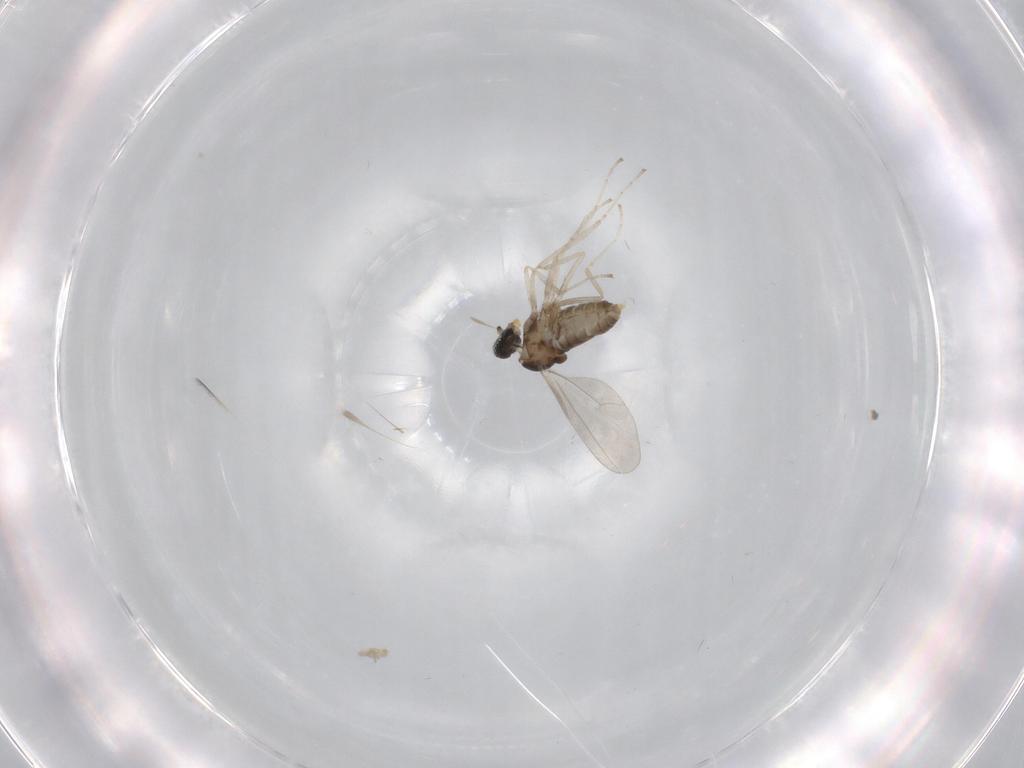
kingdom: Animalia
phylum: Arthropoda
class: Insecta
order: Diptera
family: Cecidomyiidae
